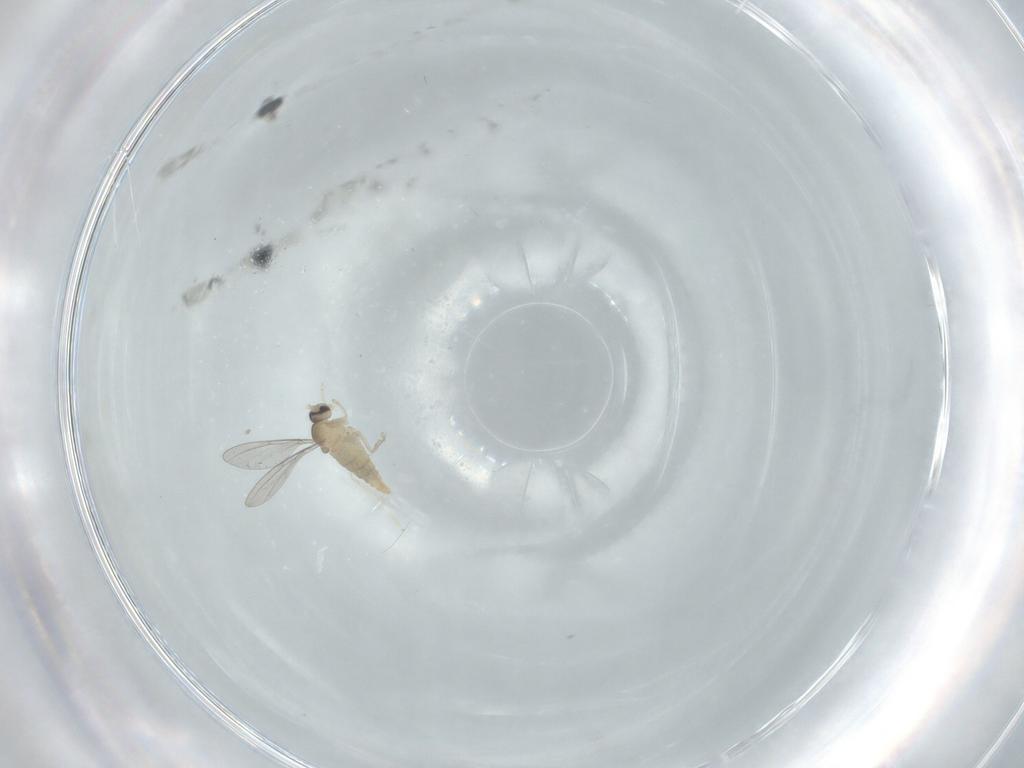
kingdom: Animalia
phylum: Arthropoda
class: Insecta
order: Diptera
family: Cecidomyiidae
